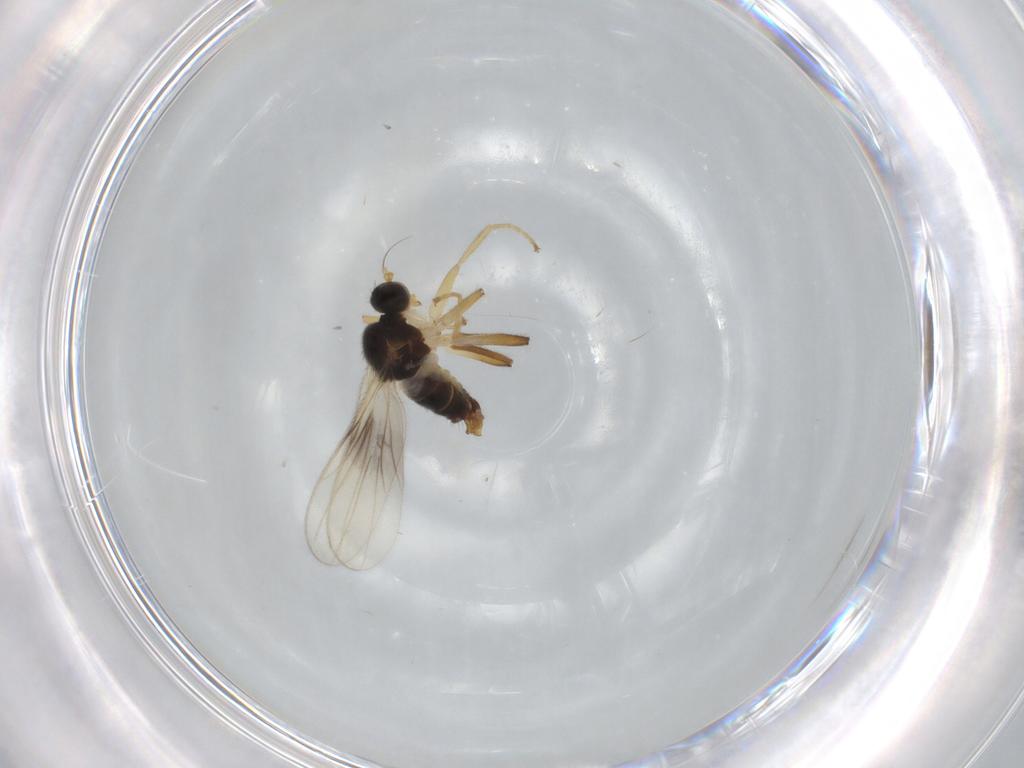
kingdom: Animalia
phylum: Arthropoda
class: Insecta
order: Diptera
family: Hybotidae
